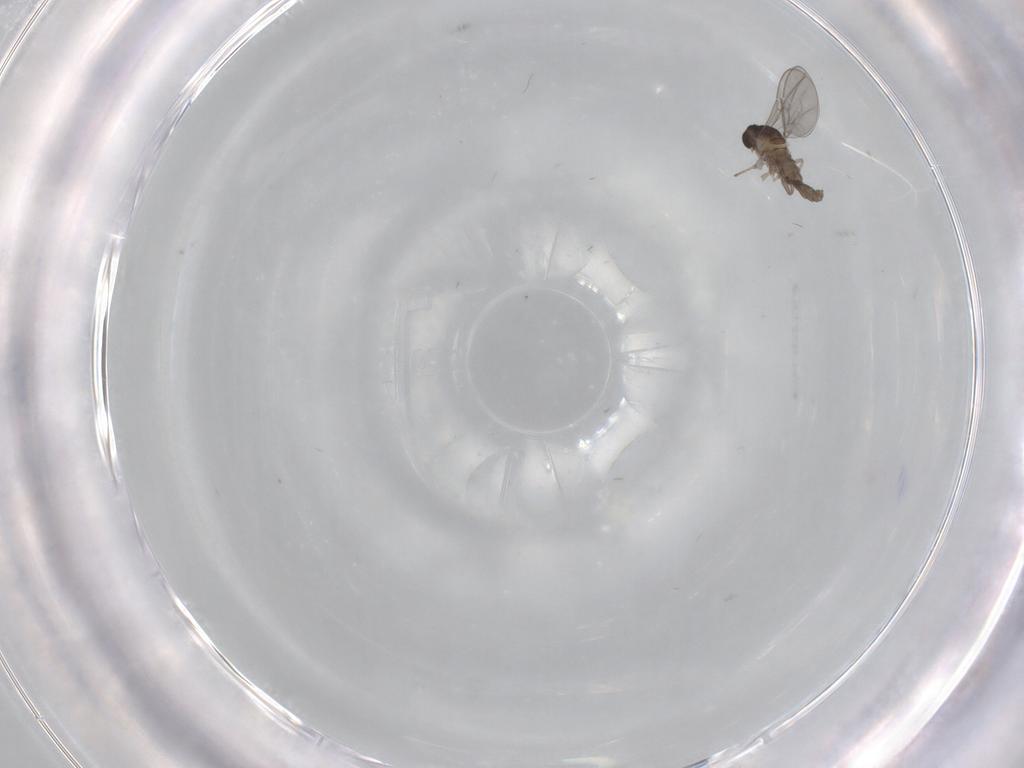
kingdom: Animalia
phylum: Arthropoda
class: Insecta
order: Diptera
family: Cecidomyiidae
